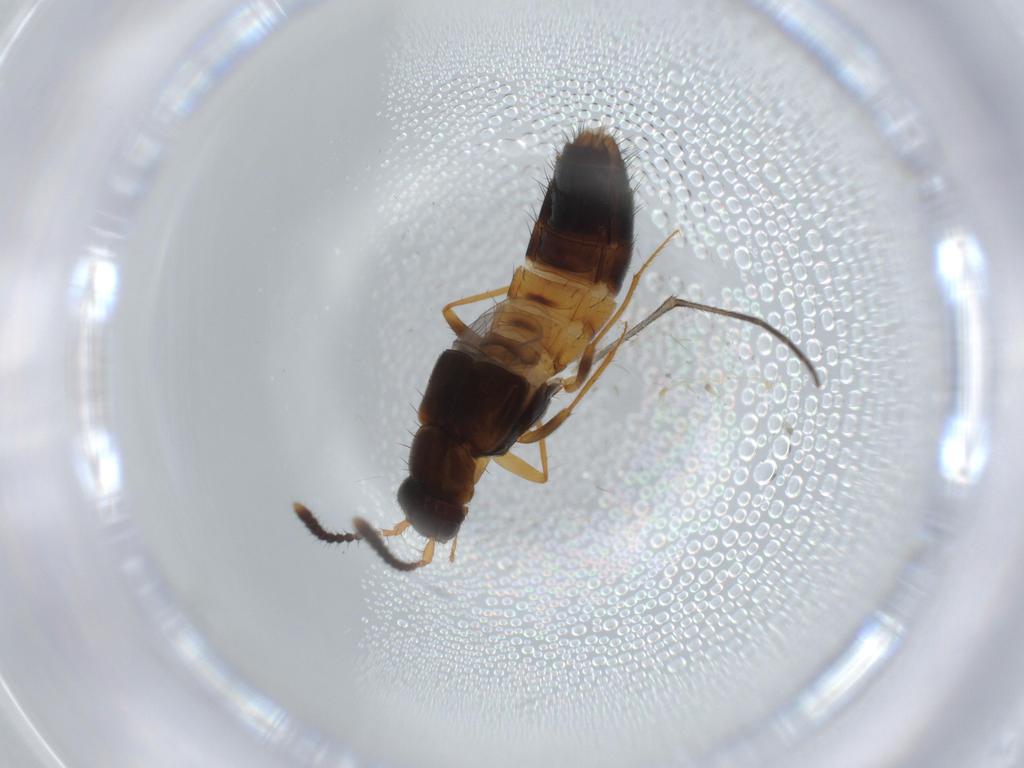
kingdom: Animalia
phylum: Arthropoda
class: Insecta
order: Coleoptera
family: Staphylinidae
